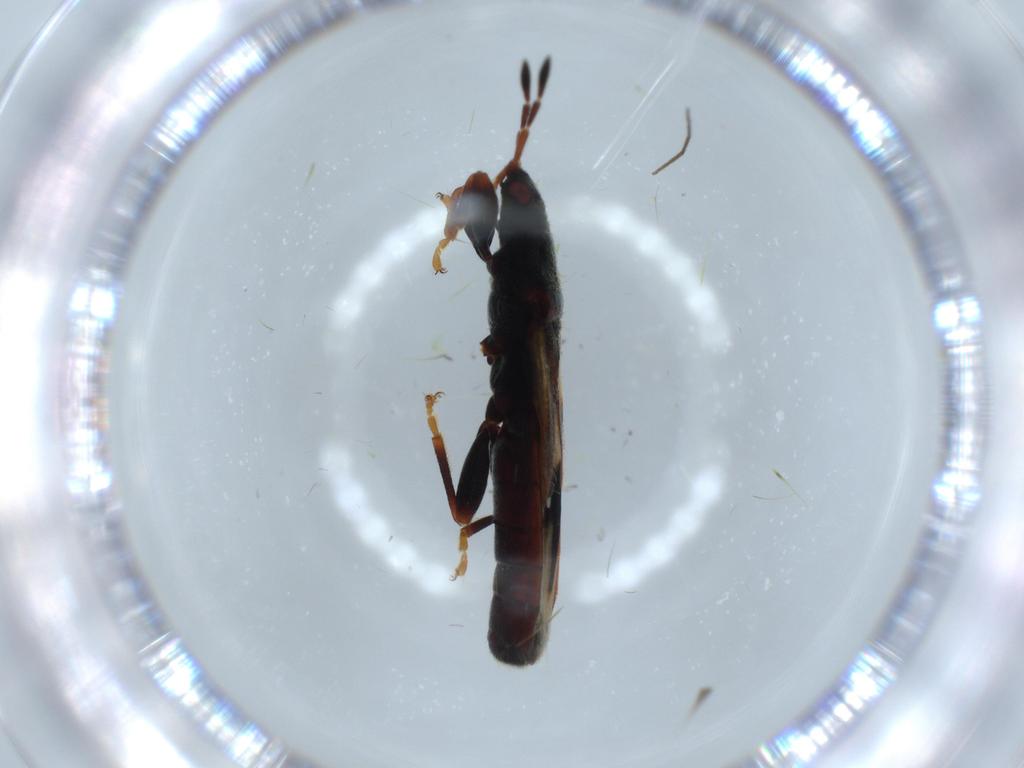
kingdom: Animalia
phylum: Arthropoda
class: Insecta
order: Hemiptera
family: Blissidae
